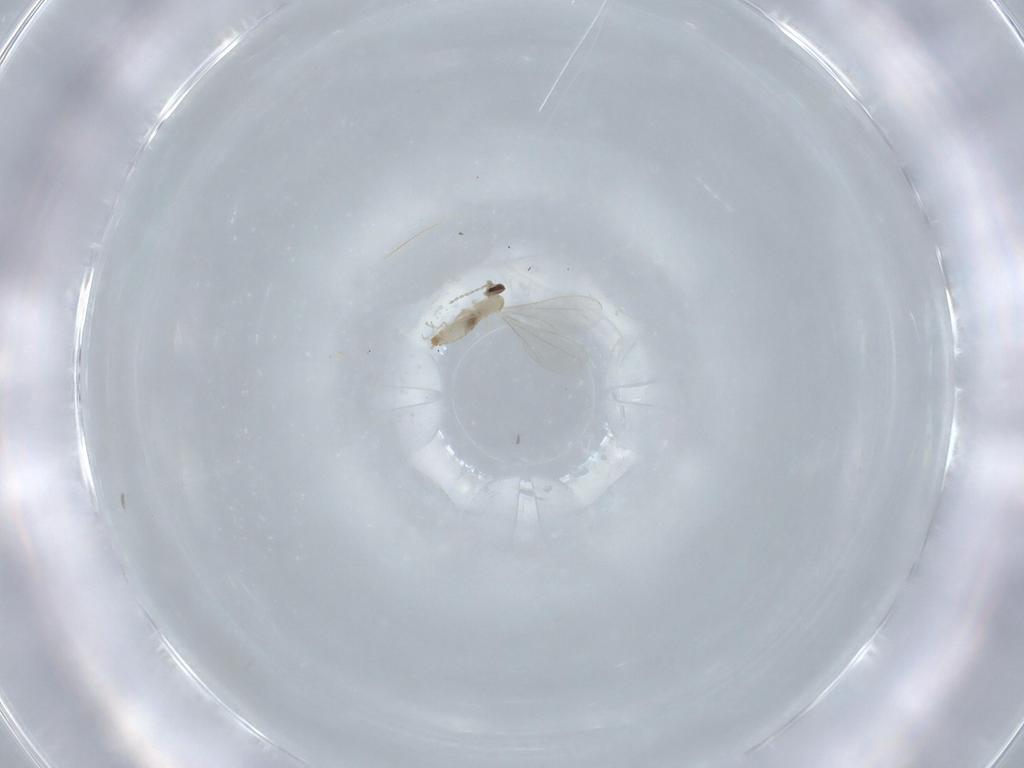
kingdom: Animalia
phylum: Arthropoda
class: Insecta
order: Diptera
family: Cecidomyiidae
